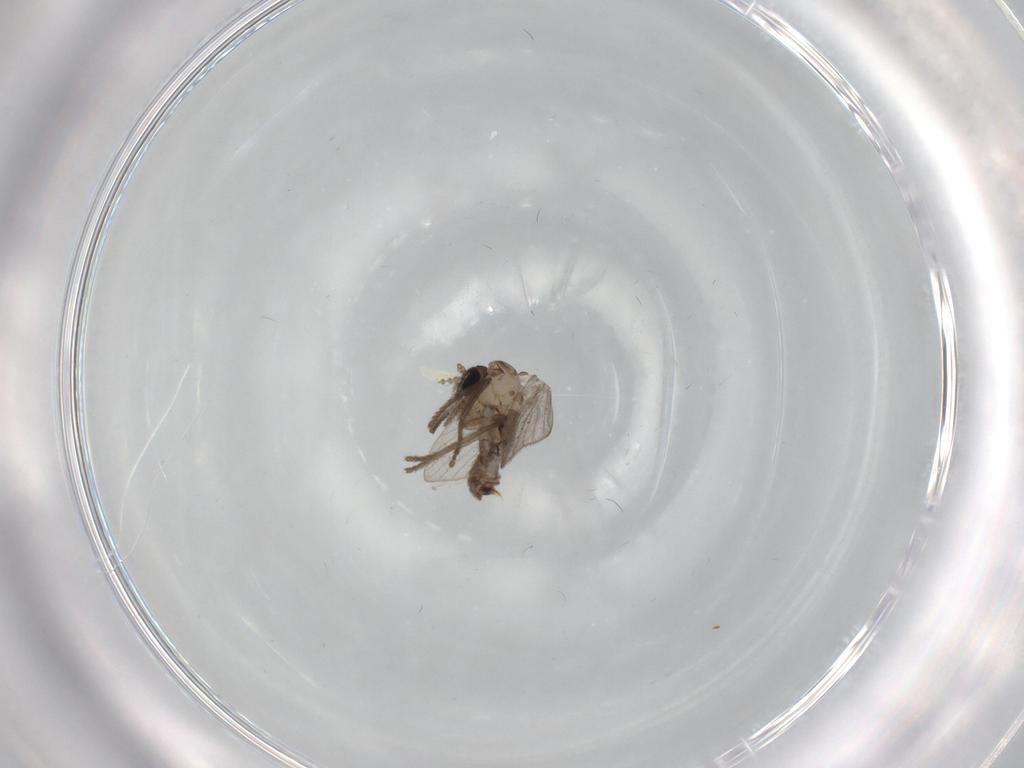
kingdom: Animalia
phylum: Arthropoda
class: Insecta
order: Diptera
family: Psychodidae
